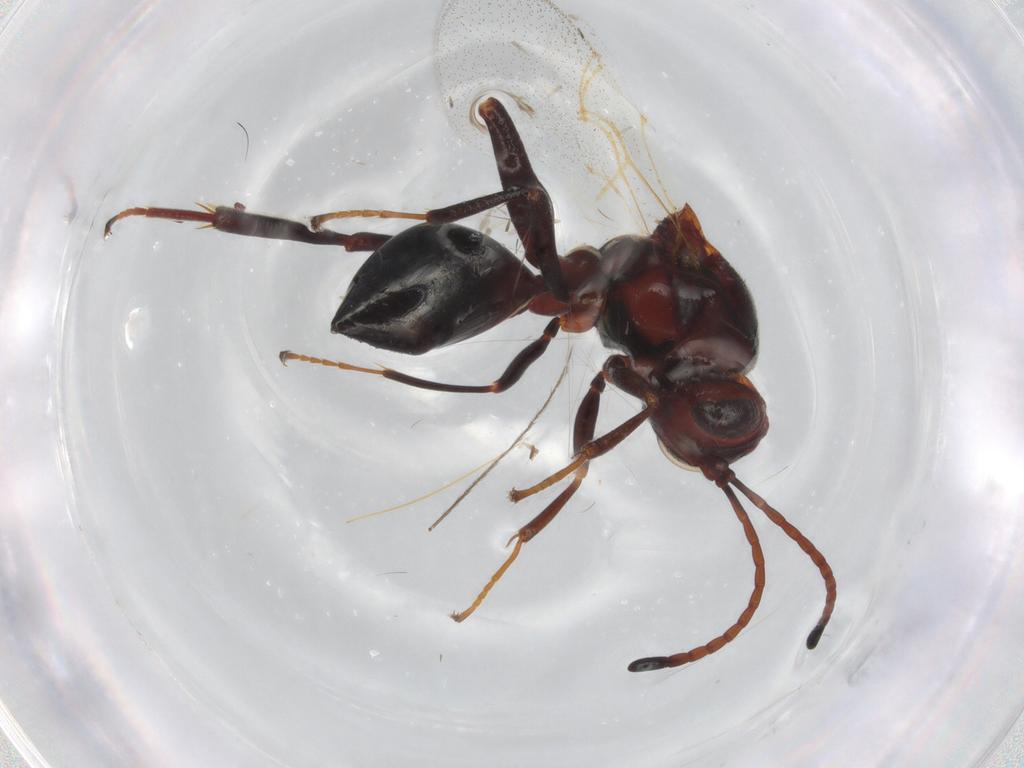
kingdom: Animalia
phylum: Arthropoda
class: Insecta
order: Hymenoptera
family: Figitidae
